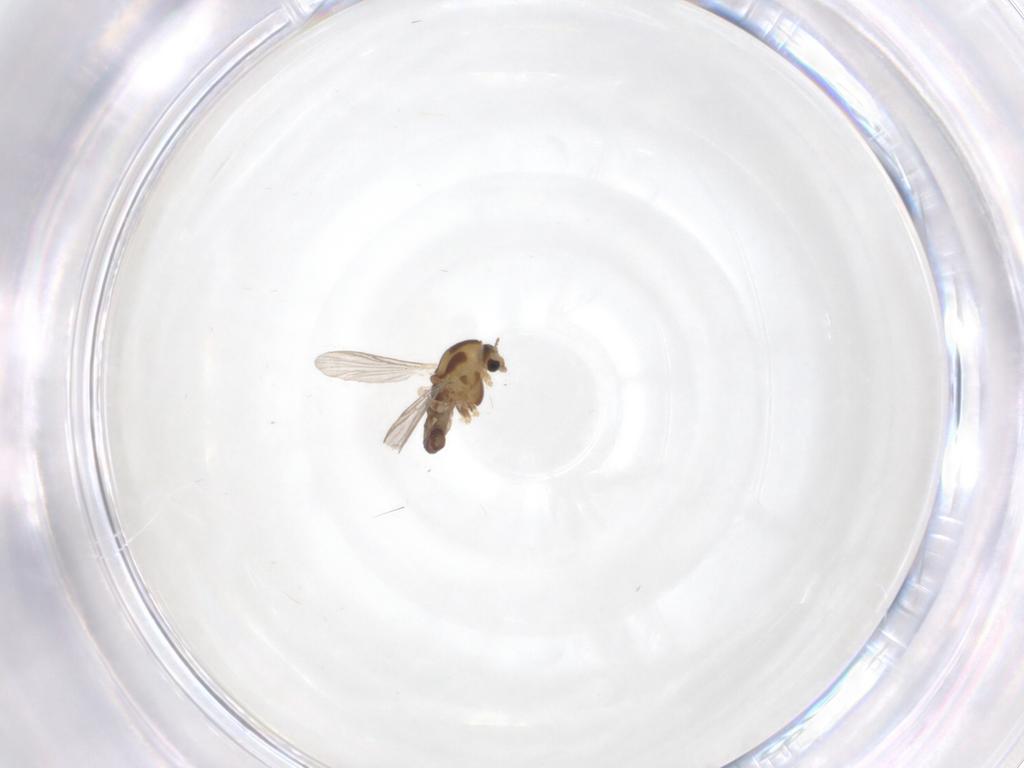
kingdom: Animalia
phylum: Arthropoda
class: Insecta
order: Diptera
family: Chironomidae
